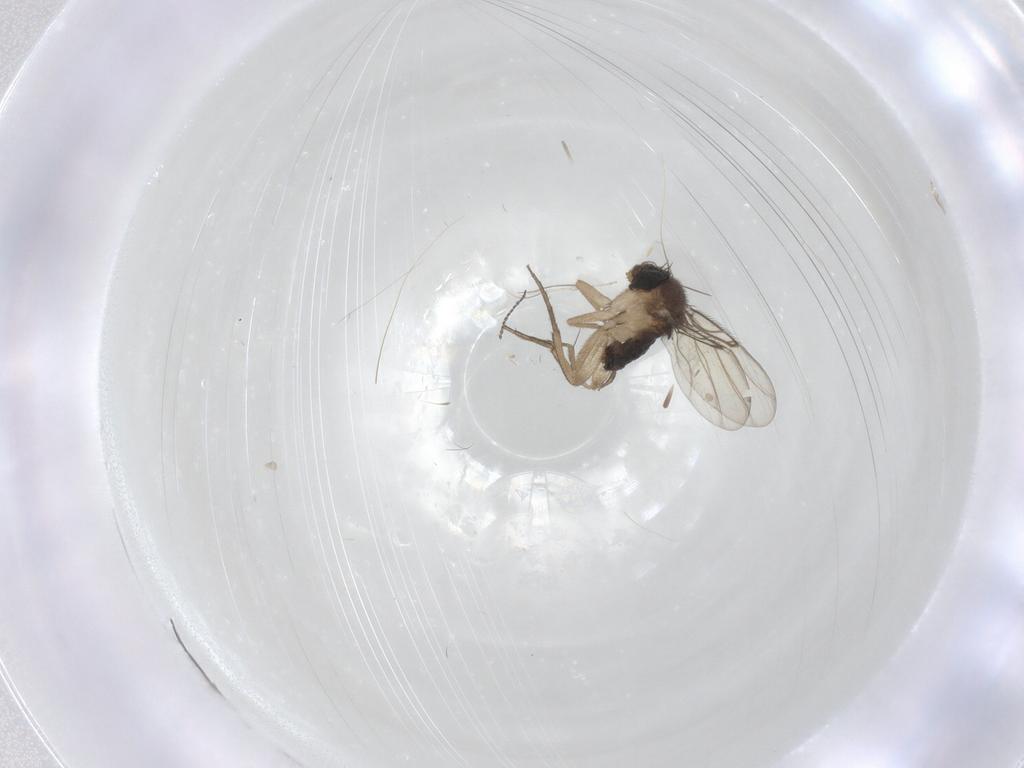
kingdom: Animalia
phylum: Arthropoda
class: Insecta
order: Diptera
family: Cecidomyiidae
